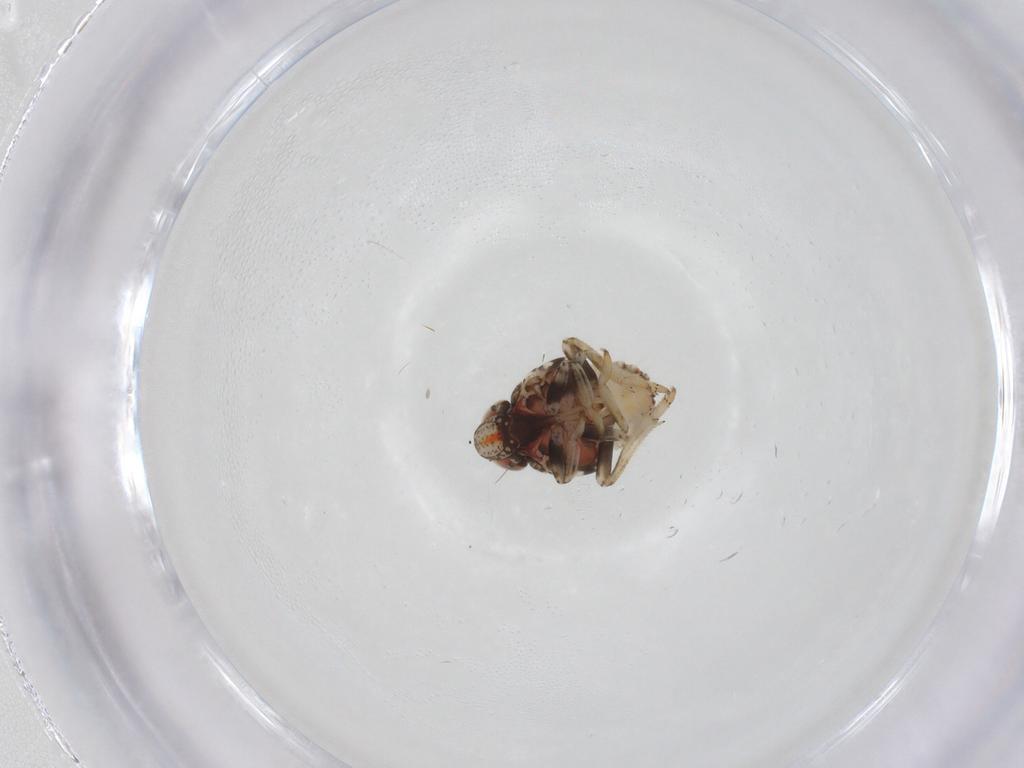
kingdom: Animalia
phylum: Arthropoda
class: Insecta
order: Hemiptera
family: Issidae
